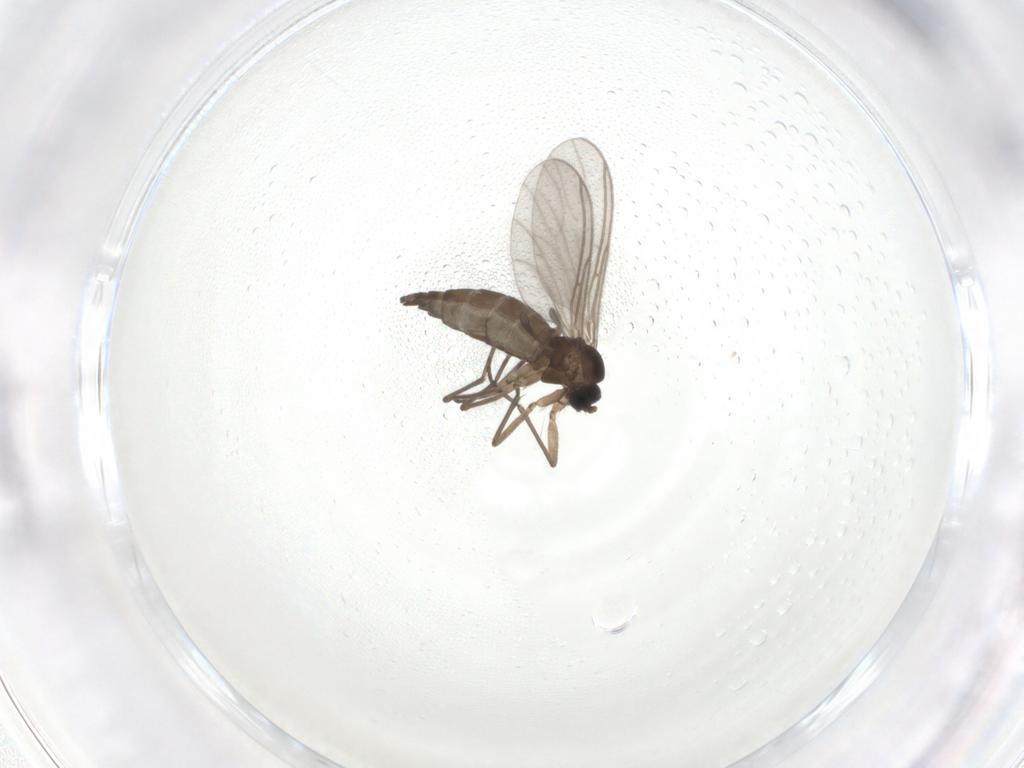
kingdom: Animalia
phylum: Arthropoda
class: Insecta
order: Diptera
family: Sciaridae
